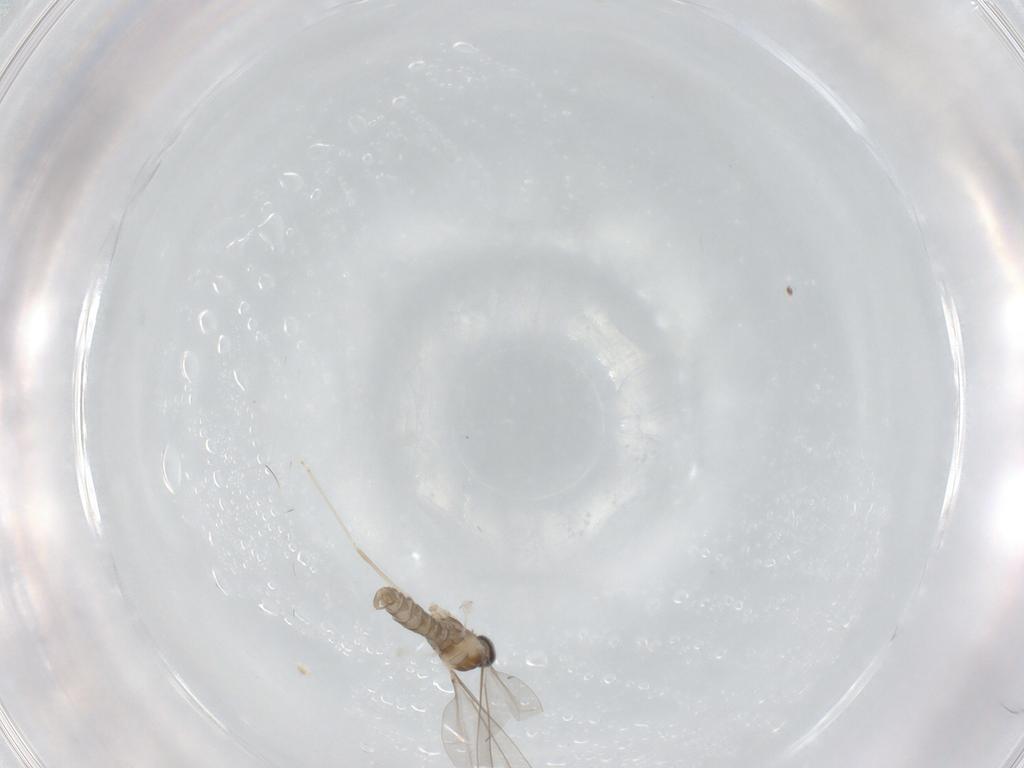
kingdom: Animalia
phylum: Arthropoda
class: Insecta
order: Diptera
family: Cecidomyiidae
